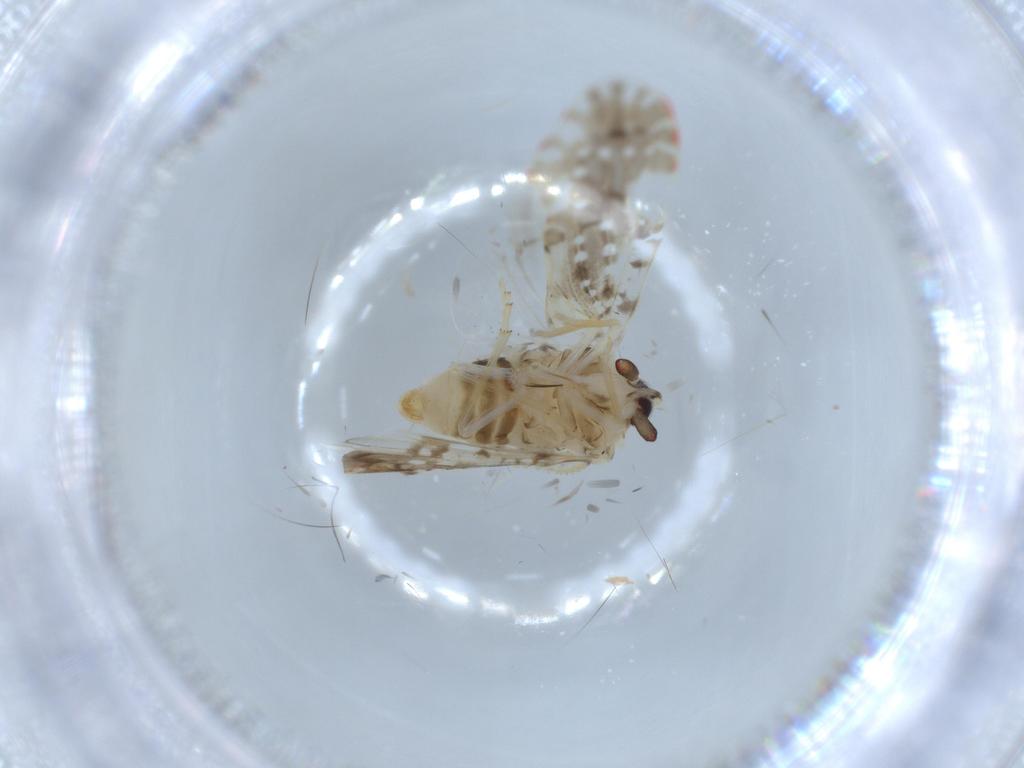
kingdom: Animalia
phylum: Arthropoda
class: Insecta
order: Hemiptera
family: Derbidae
